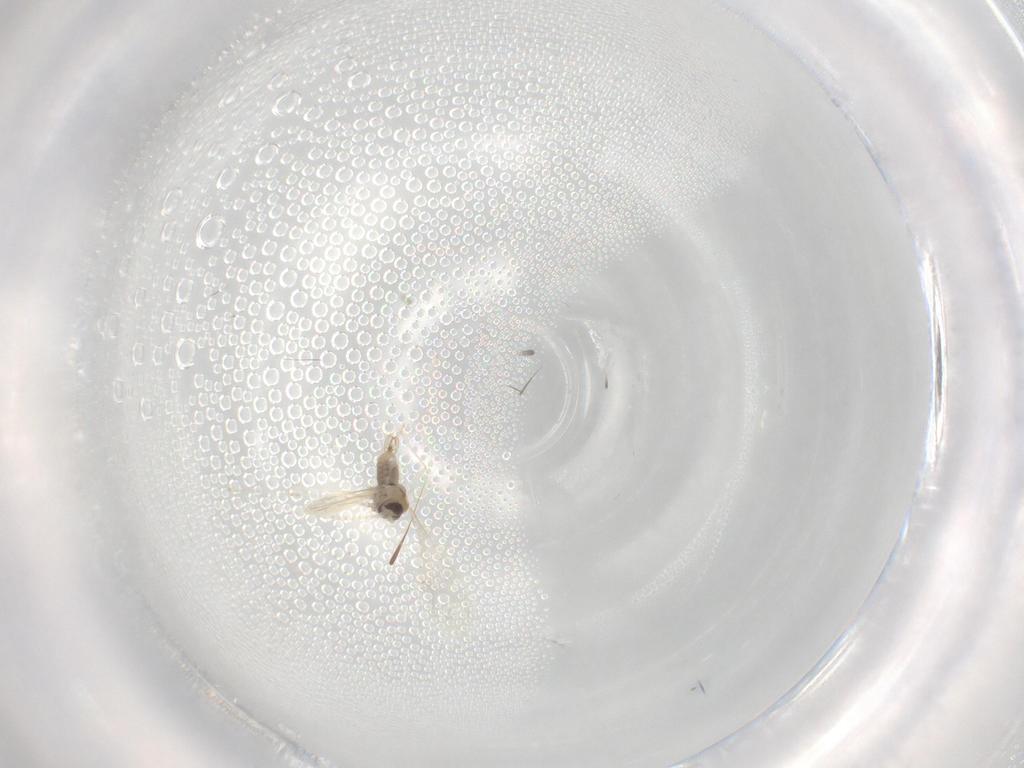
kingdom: Animalia
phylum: Arthropoda
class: Insecta
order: Diptera
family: Cecidomyiidae
